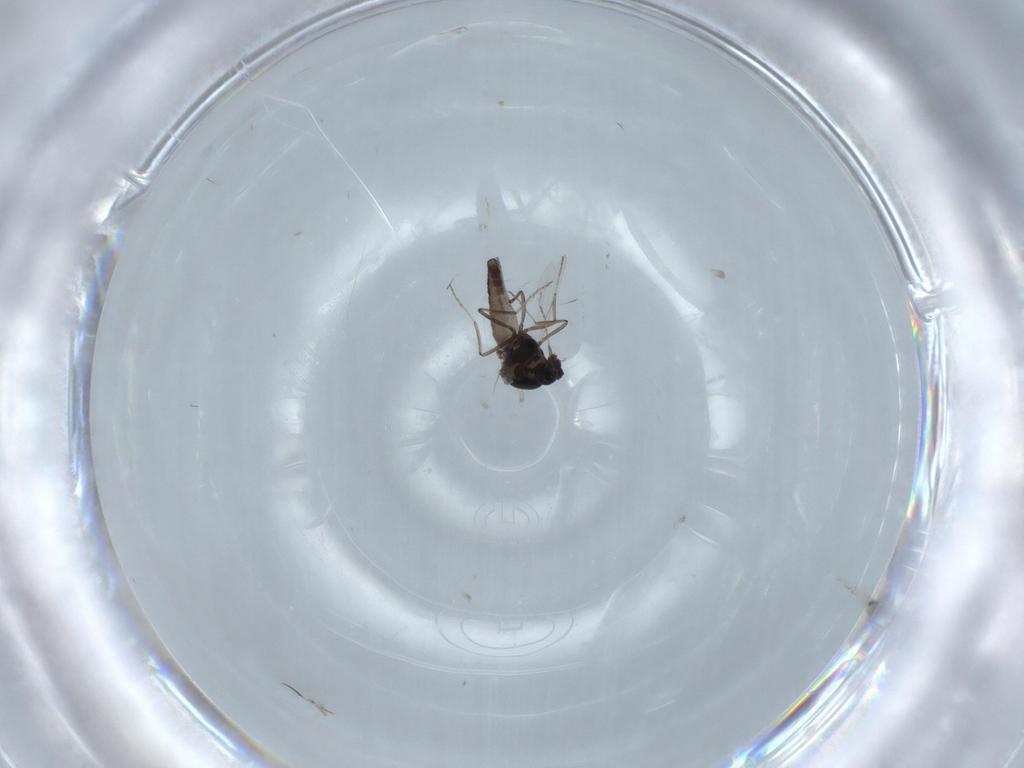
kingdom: Animalia
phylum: Arthropoda
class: Insecta
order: Diptera
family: Ceratopogonidae
